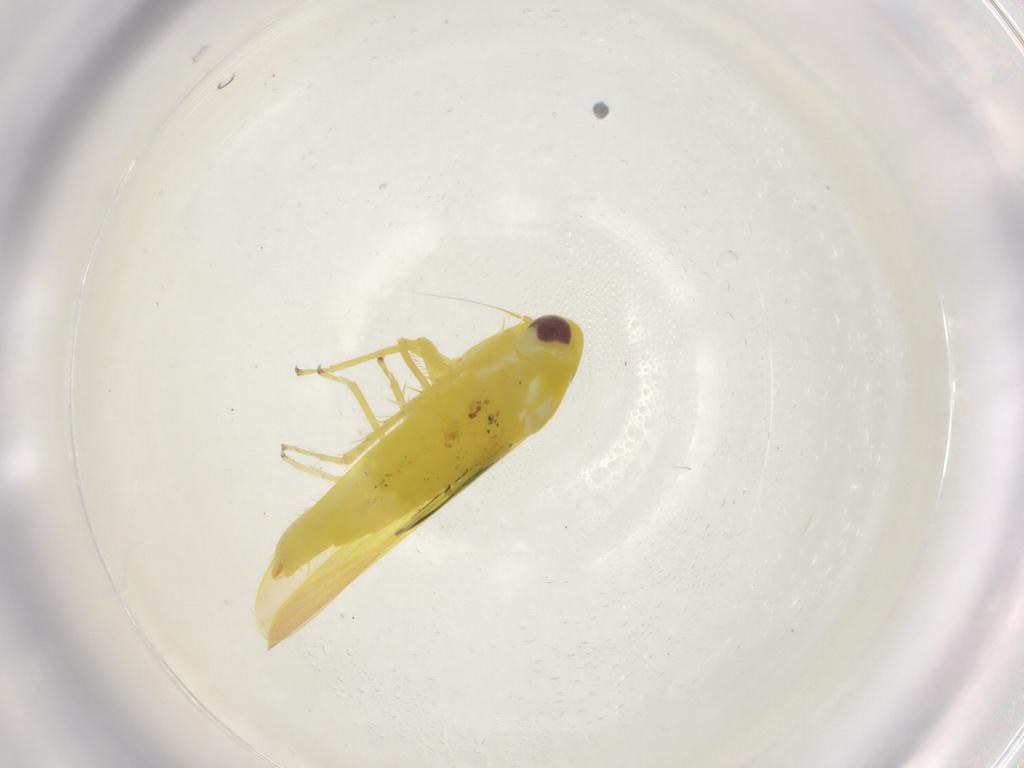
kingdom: Animalia
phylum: Arthropoda
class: Insecta
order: Hemiptera
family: Cicadellidae
